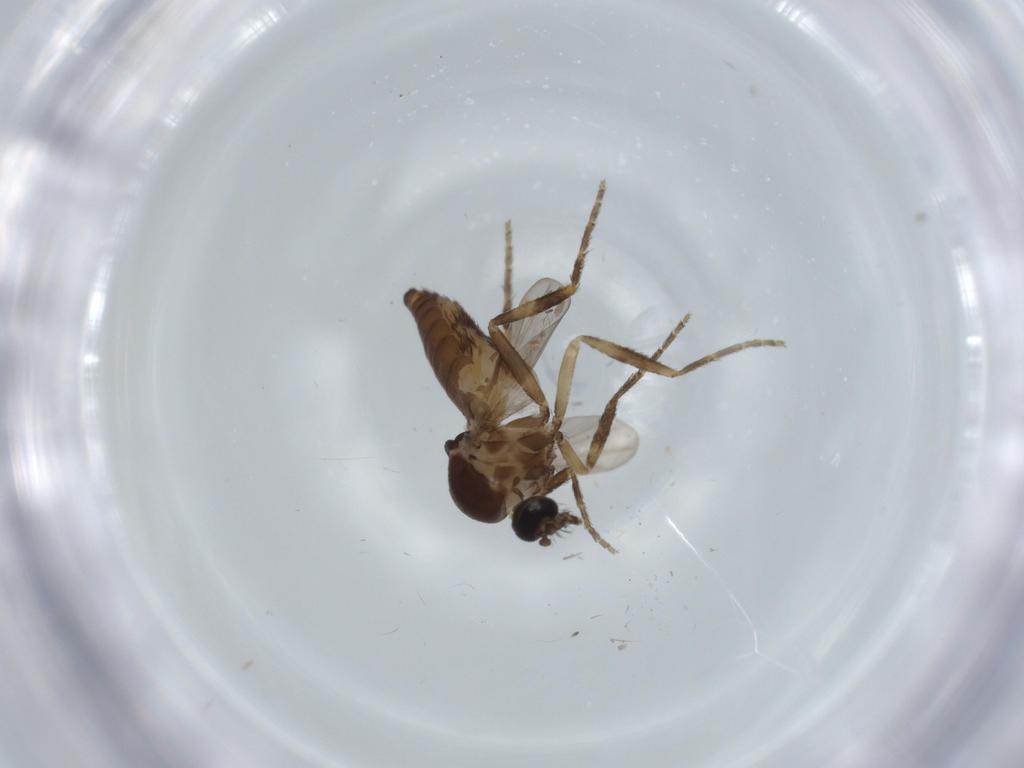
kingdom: Animalia
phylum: Arthropoda
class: Insecta
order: Diptera
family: Ceratopogonidae
